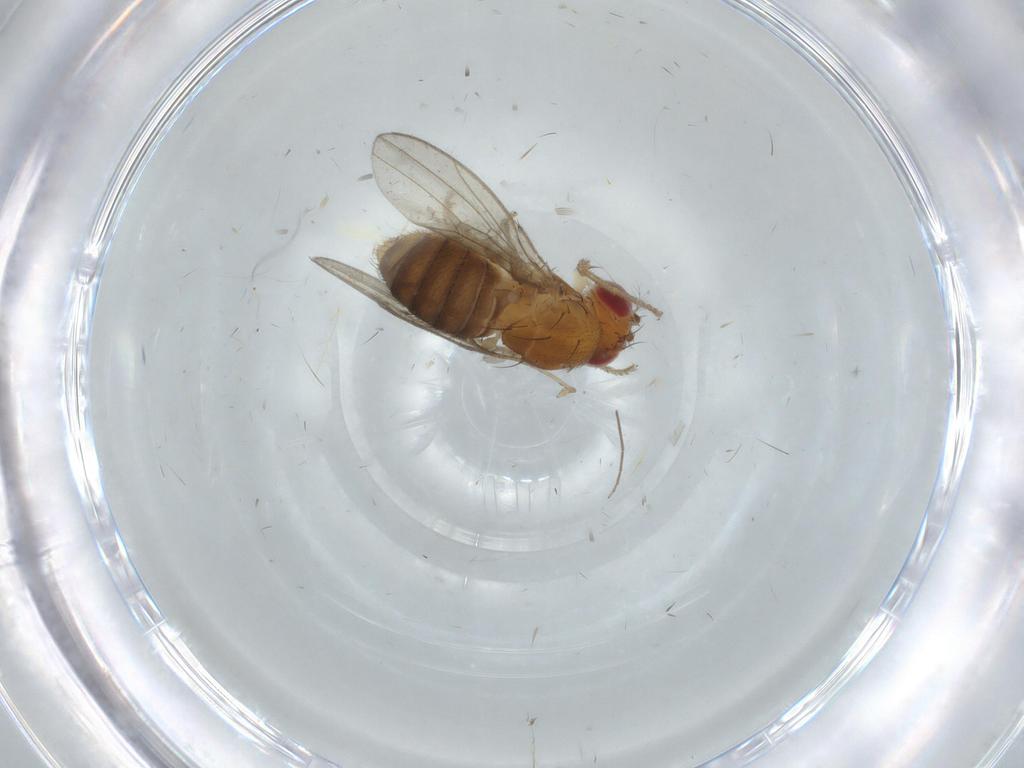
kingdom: Animalia
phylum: Arthropoda
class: Insecta
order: Diptera
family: Drosophilidae
